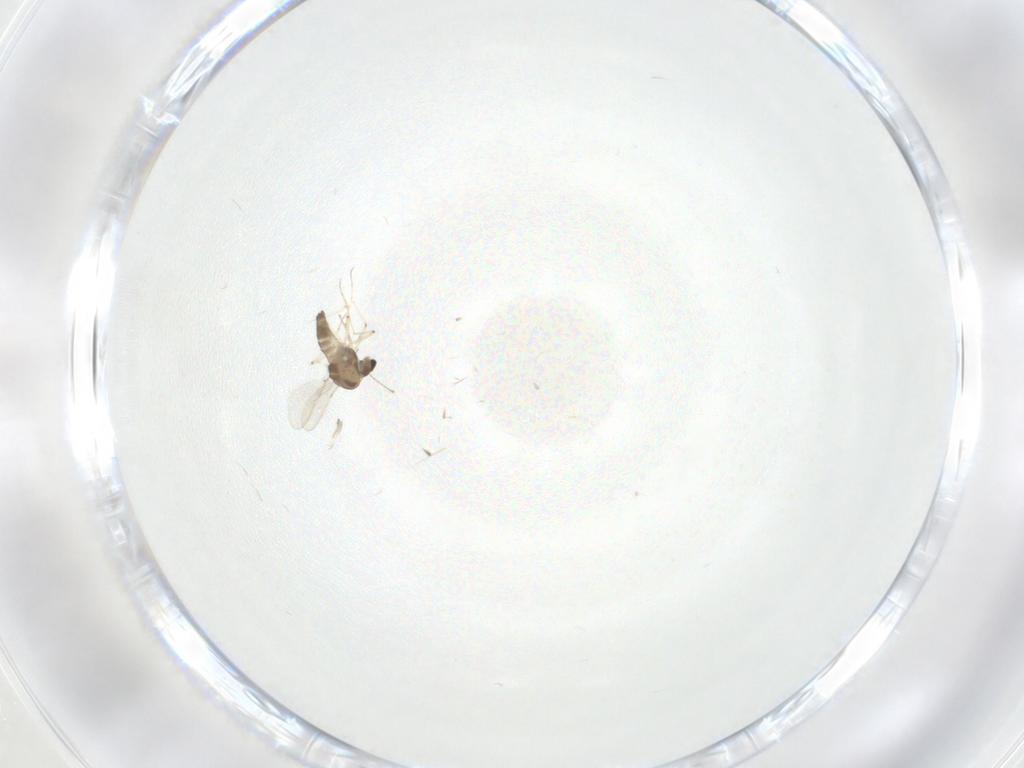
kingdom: Animalia
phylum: Arthropoda
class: Insecta
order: Diptera
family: Chironomidae
